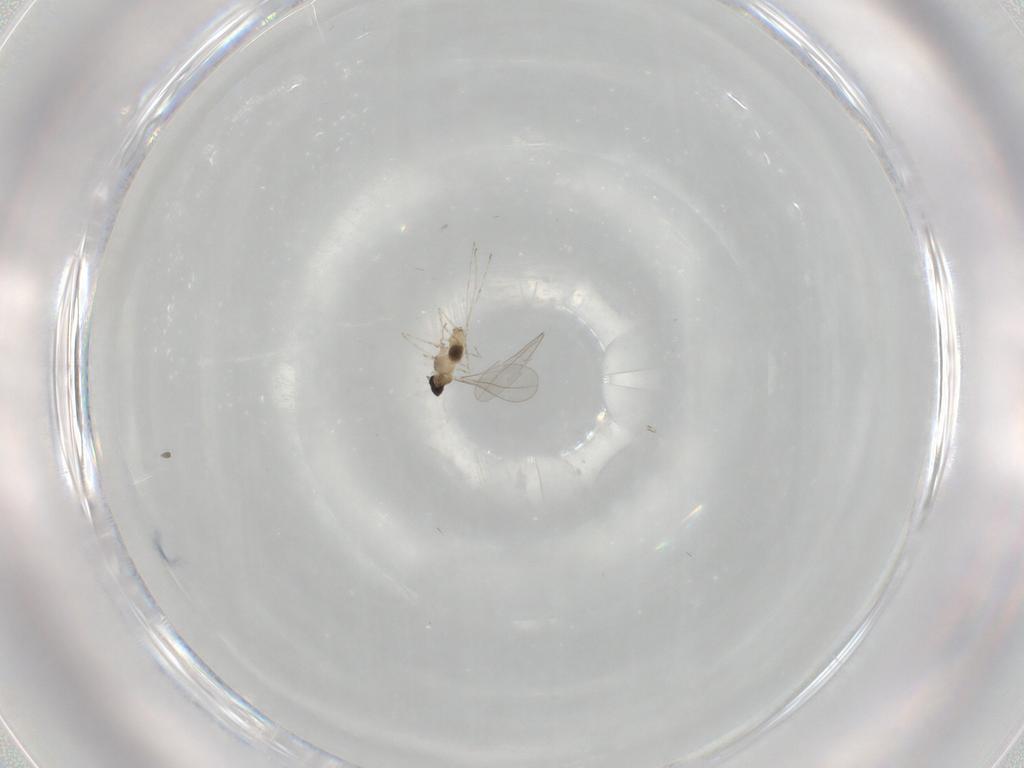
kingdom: Animalia
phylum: Arthropoda
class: Insecta
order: Diptera
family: Cecidomyiidae
